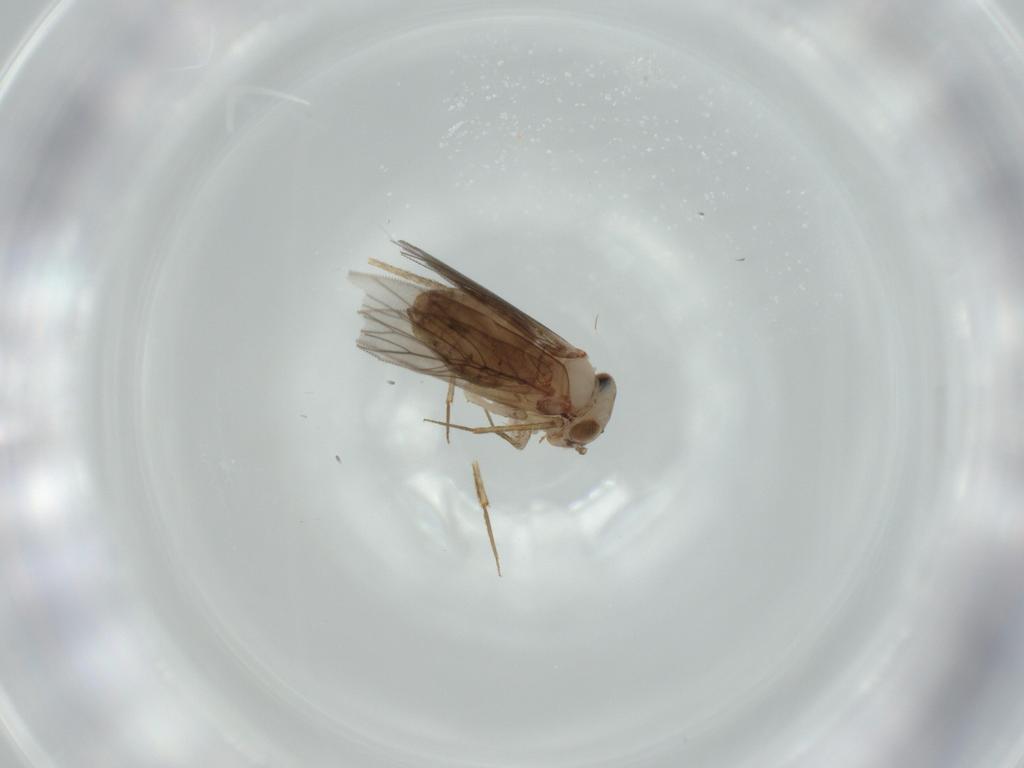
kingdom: Animalia
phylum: Arthropoda
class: Insecta
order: Psocodea
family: Lepidopsocidae
